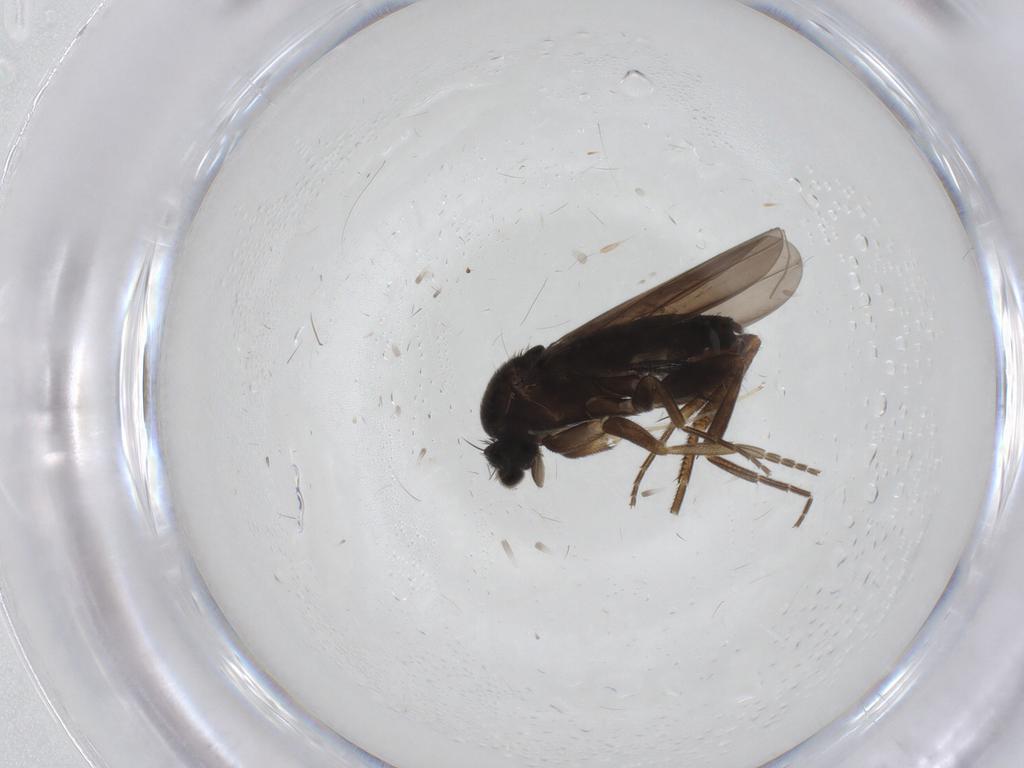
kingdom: Animalia
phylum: Arthropoda
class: Insecta
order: Diptera
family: Phoridae
